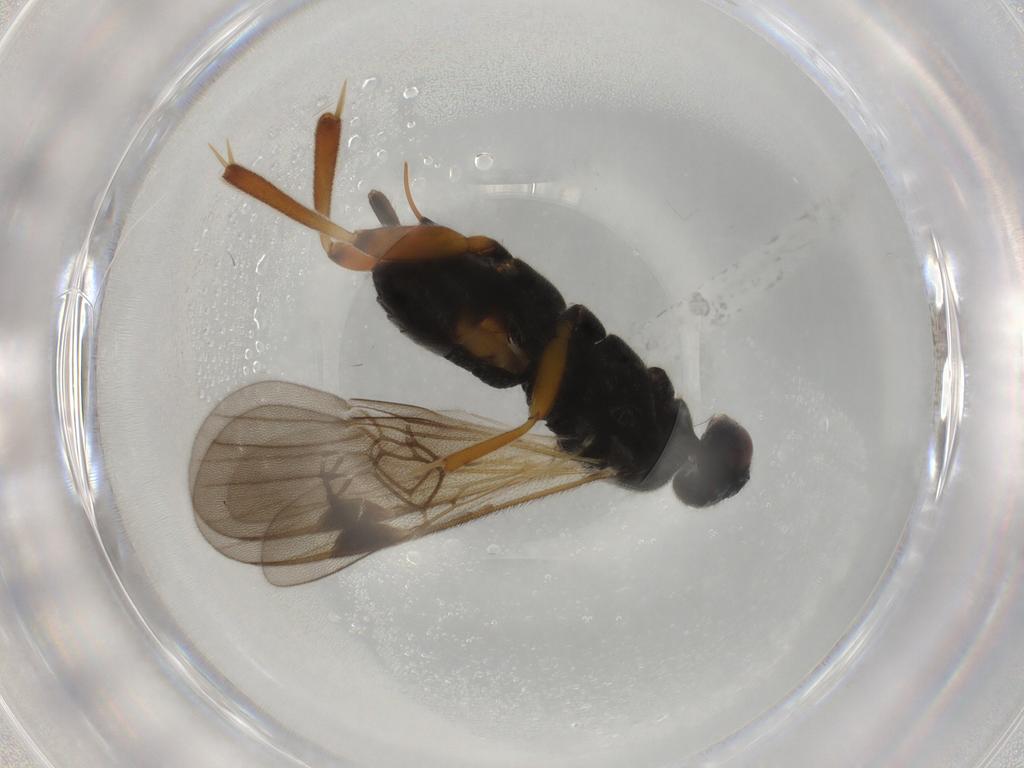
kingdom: Animalia
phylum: Arthropoda
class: Insecta
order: Hymenoptera
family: Braconidae
